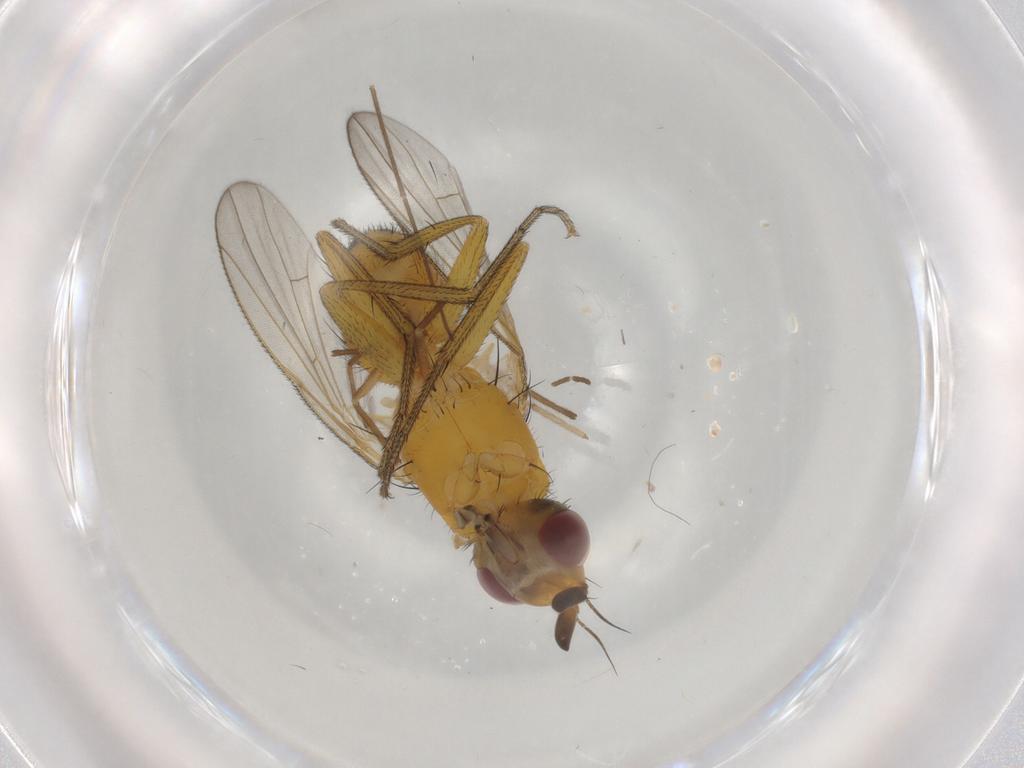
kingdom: Animalia
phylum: Arthropoda
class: Insecta
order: Diptera
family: Muscidae
